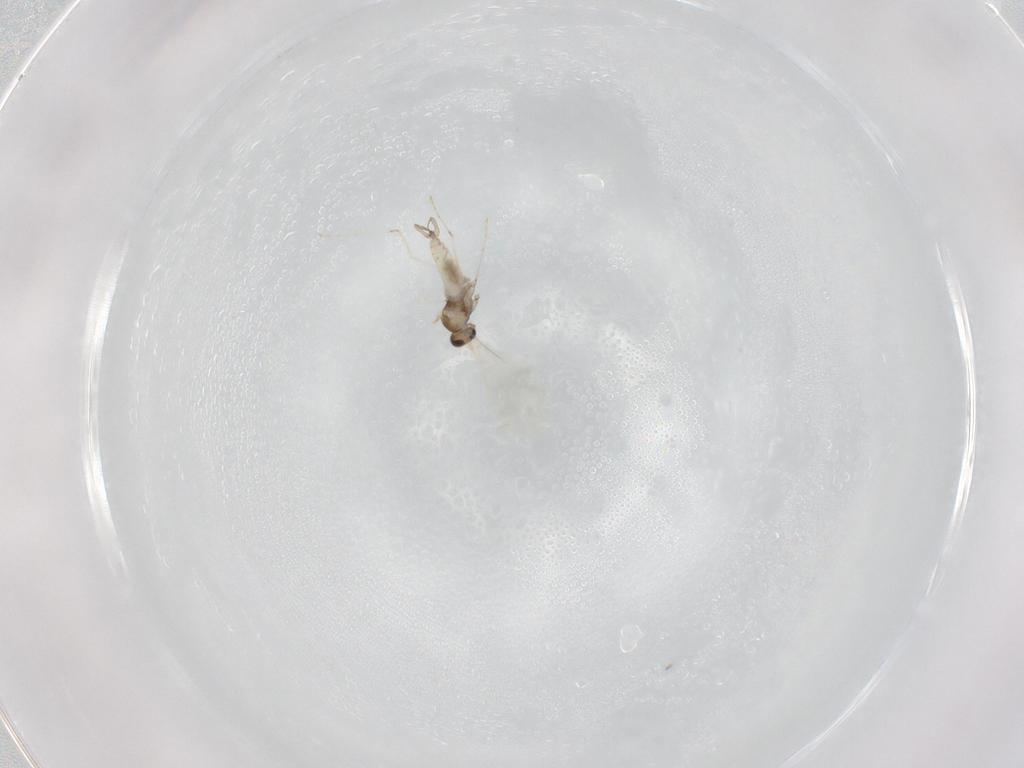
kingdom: Animalia
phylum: Arthropoda
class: Insecta
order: Diptera
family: Cecidomyiidae
